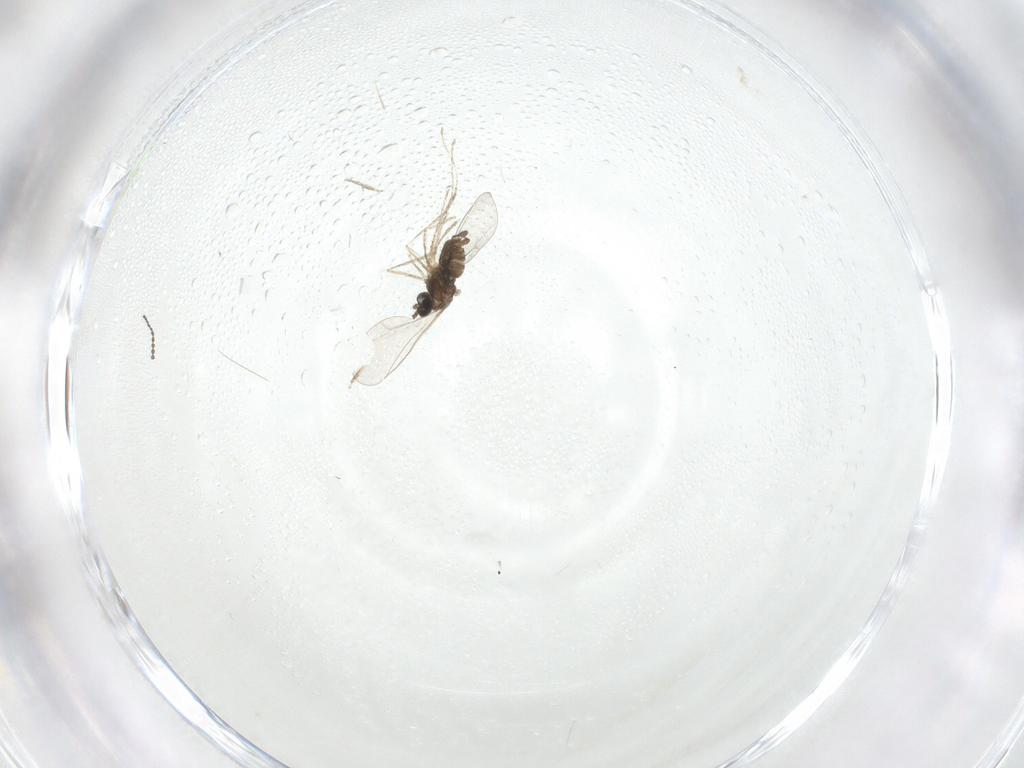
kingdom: Animalia
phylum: Arthropoda
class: Insecta
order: Diptera
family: Cecidomyiidae
